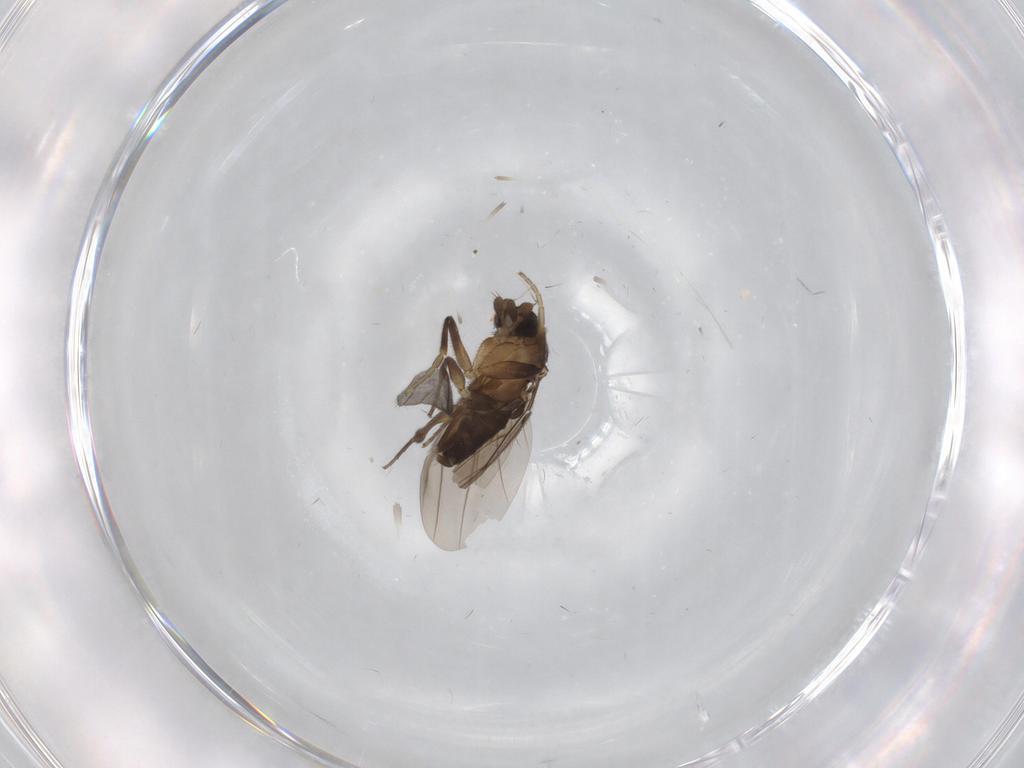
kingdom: Animalia
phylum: Arthropoda
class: Insecta
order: Diptera
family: Phoridae
